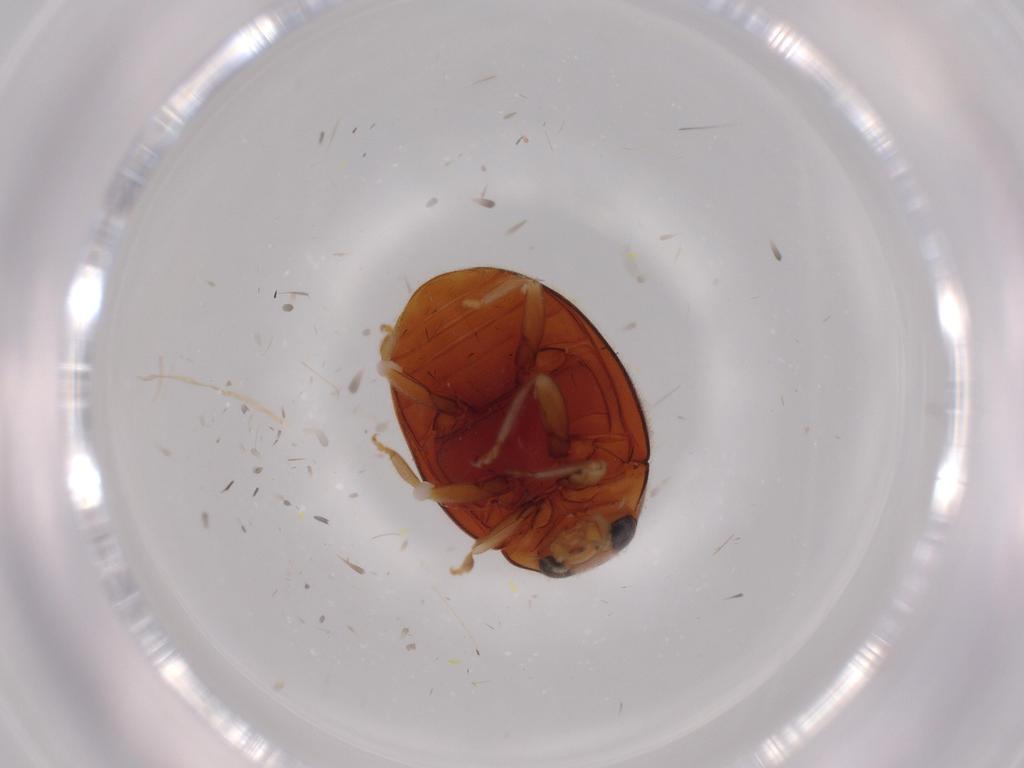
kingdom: Animalia
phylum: Arthropoda
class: Insecta
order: Coleoptera
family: Coccinellidae
